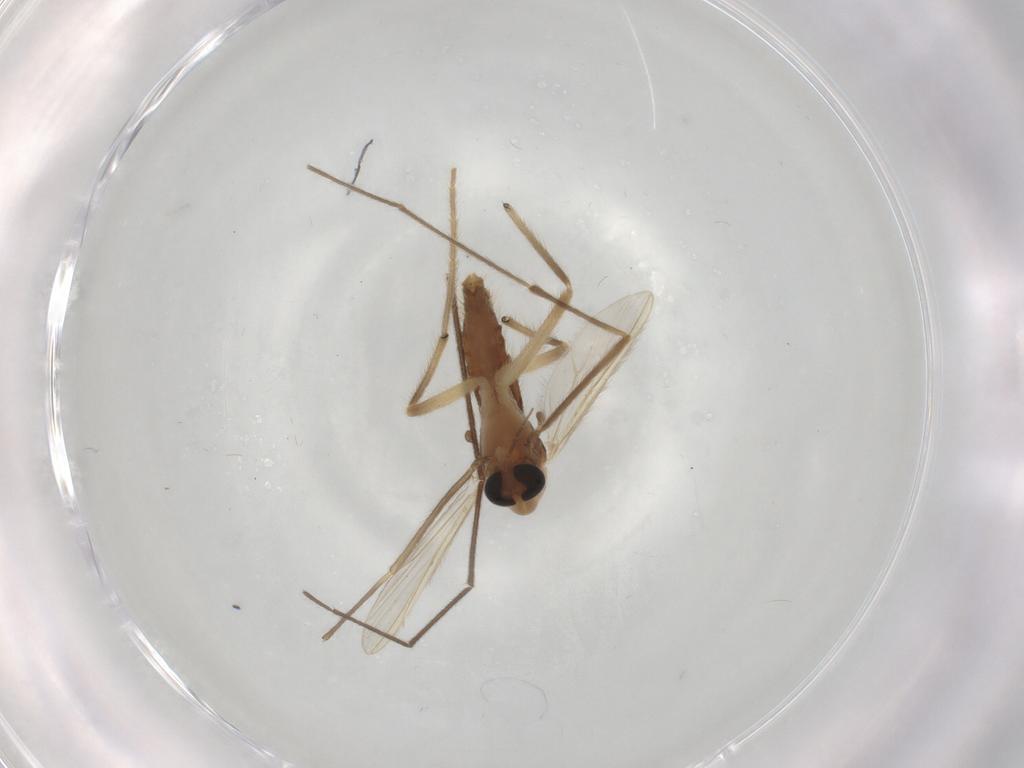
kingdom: Animalia
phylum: Arthropoda
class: Insecta
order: Diptera
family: Chironomidae
